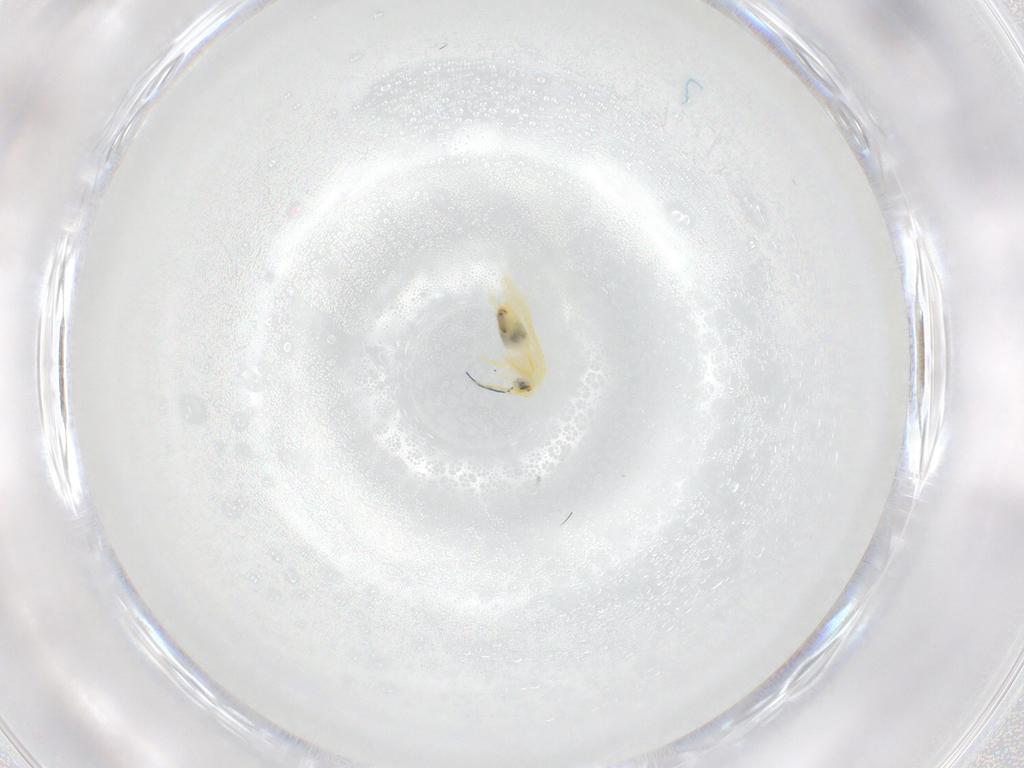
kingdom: Animalia
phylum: Arthropoda
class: Insecta
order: Hemiptera
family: Aleyrodidae
